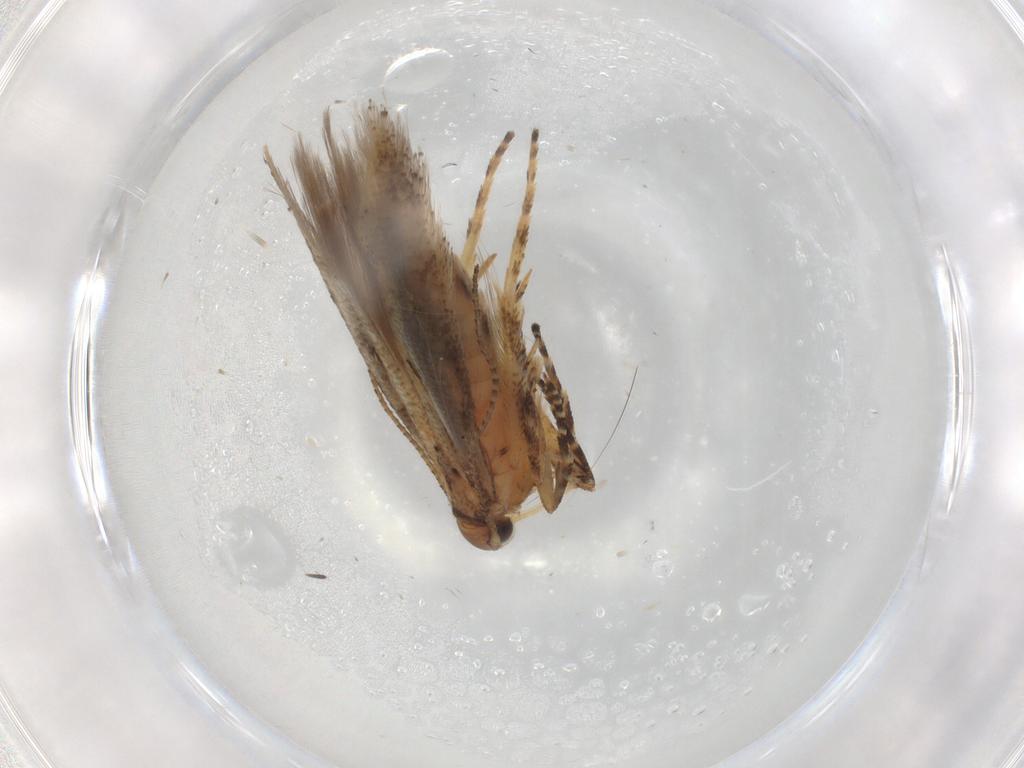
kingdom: Animalia
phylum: Arthropoda
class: Insecta
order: Lepidoptera
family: Gelechiidae
